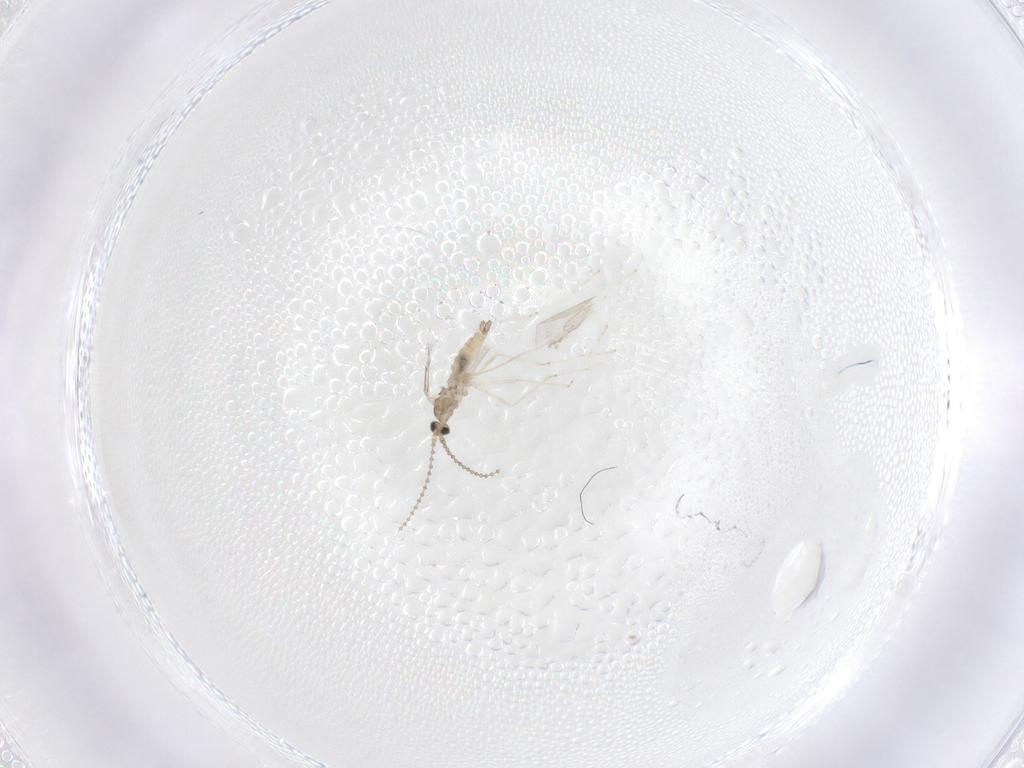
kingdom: Animalia
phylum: Arthropoda
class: Insecta
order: Diptera
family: Cecidomyiidae
